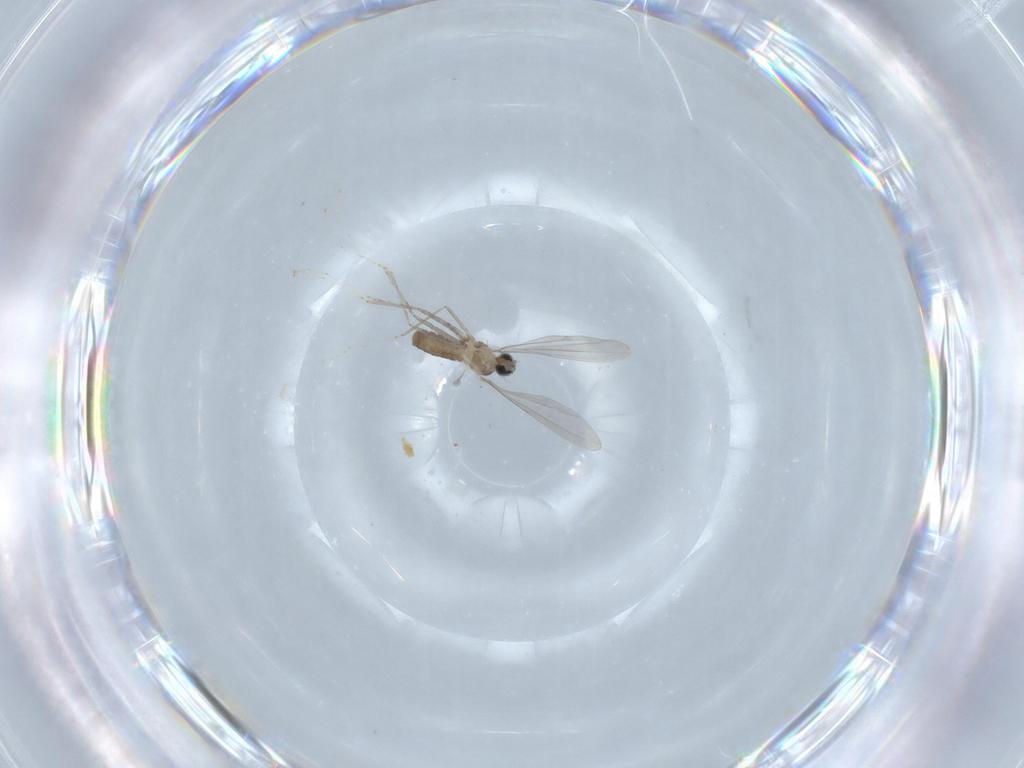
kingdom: Animalia
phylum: Arthropoda
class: Insecta
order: Diptera
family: Cecidomyiidae
